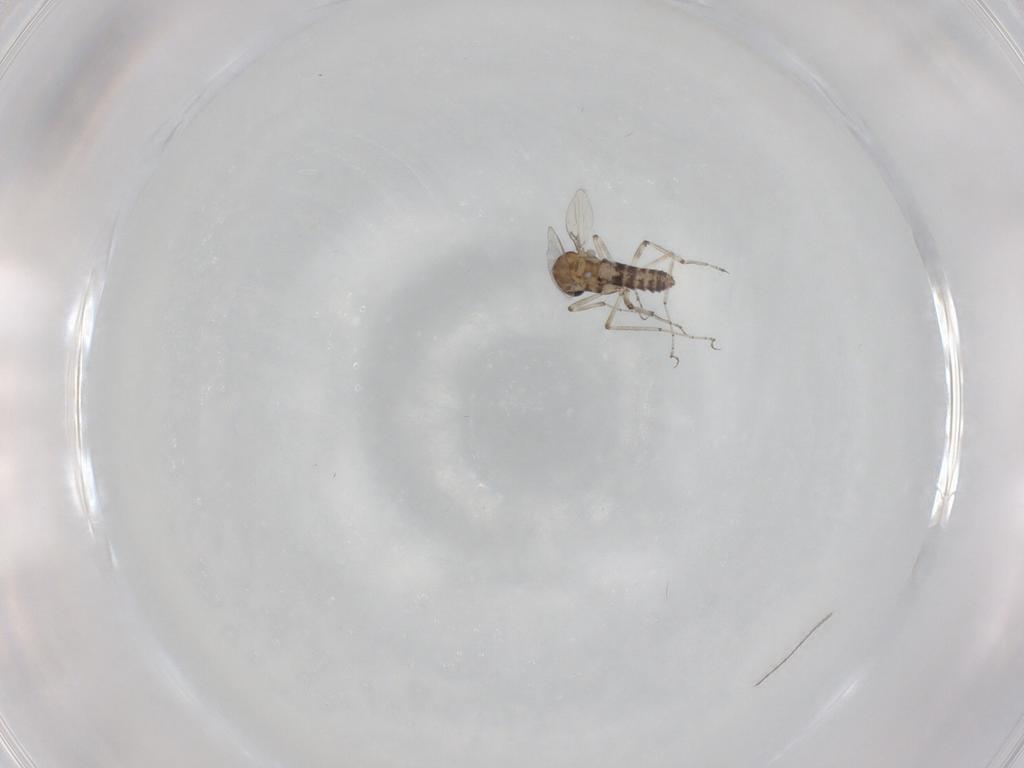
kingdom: Animalia
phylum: Arthropoda
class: Insecta
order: Diptera
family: Ceratopogonidae
